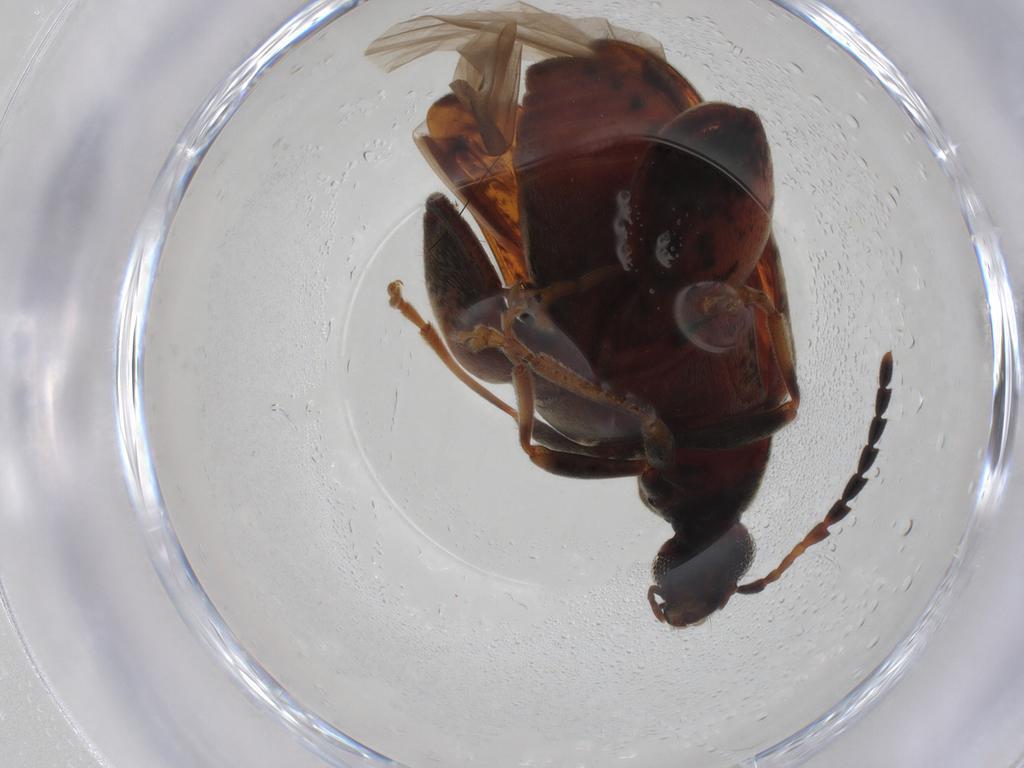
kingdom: Animalia
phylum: Arthropoda
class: Insecta
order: Coleoptera
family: Chrysomelidae
